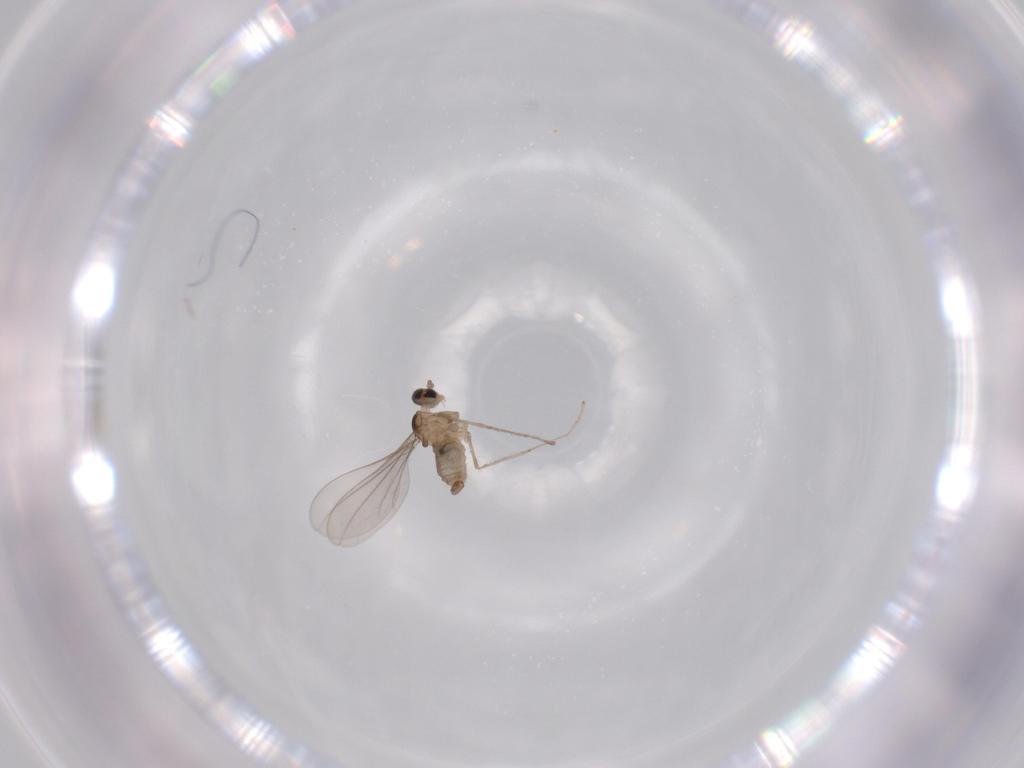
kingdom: Animalia
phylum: Arthropoda
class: Insecta
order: Diptera
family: Cecidomyiidae
